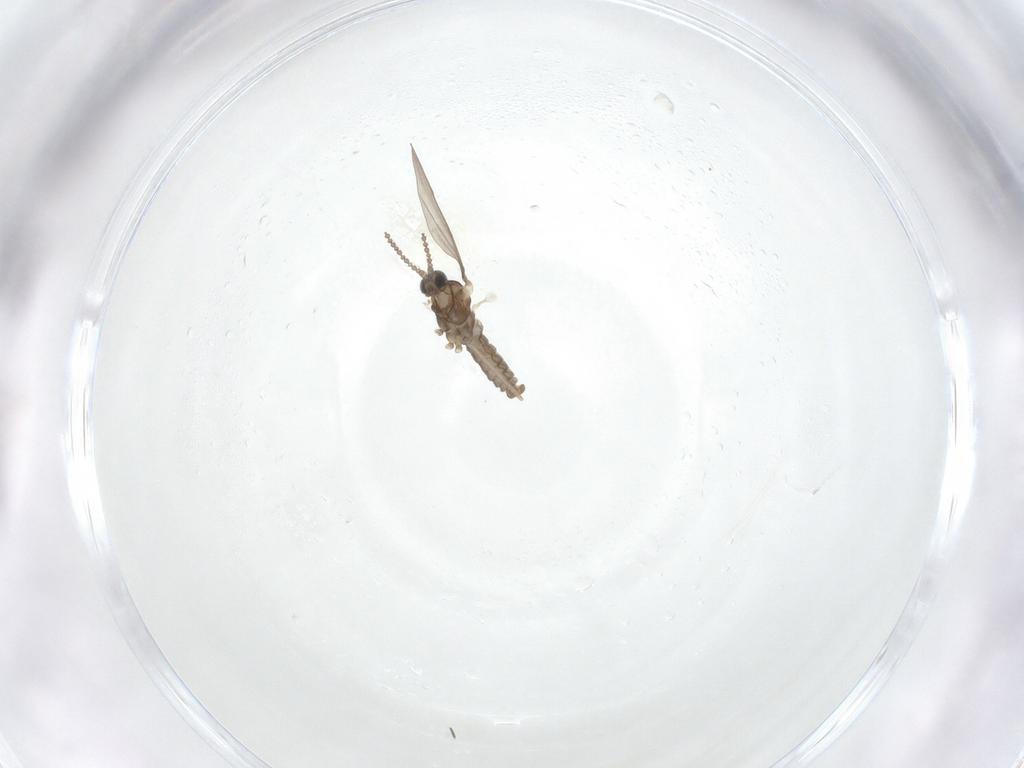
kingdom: Animalia
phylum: Arthropoda
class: Insecta
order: Diptera
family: Cecidomyiidae
